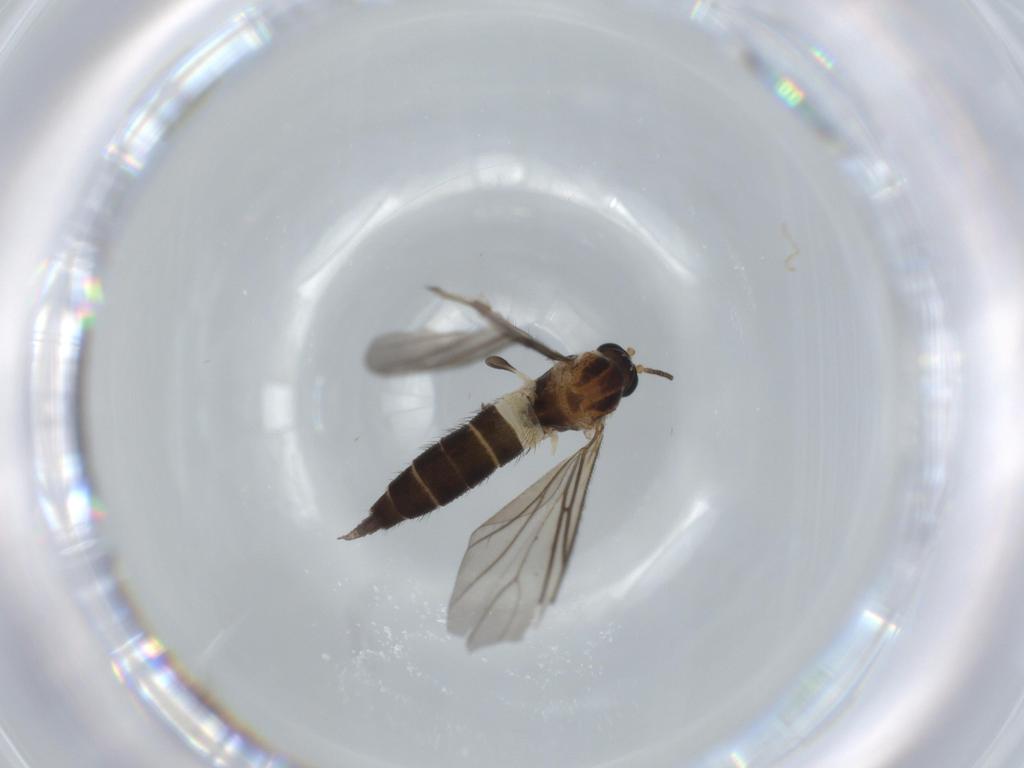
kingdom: Animalia
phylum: Arthropoda
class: Insecta
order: Diptera
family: Sciaridae
